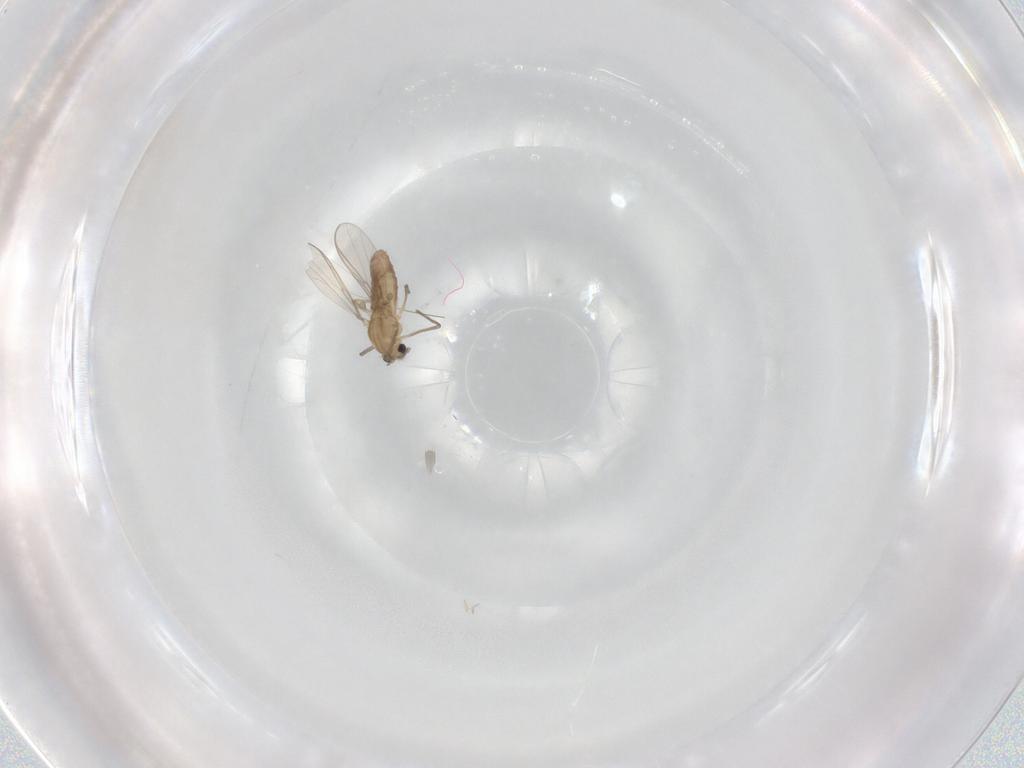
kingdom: Animalia
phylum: Arthropoda
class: Insecta
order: Diptera
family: Chironomidae
